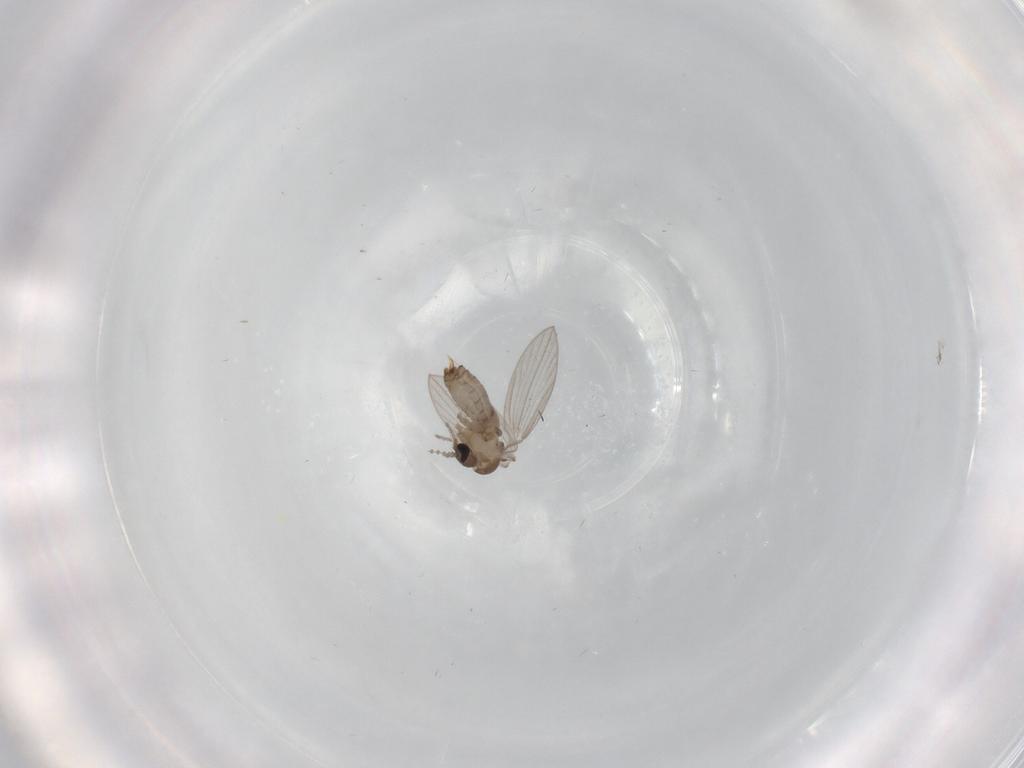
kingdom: Animalia
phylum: Arthropoda
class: Insecta
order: Diptera
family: Psychodidae
